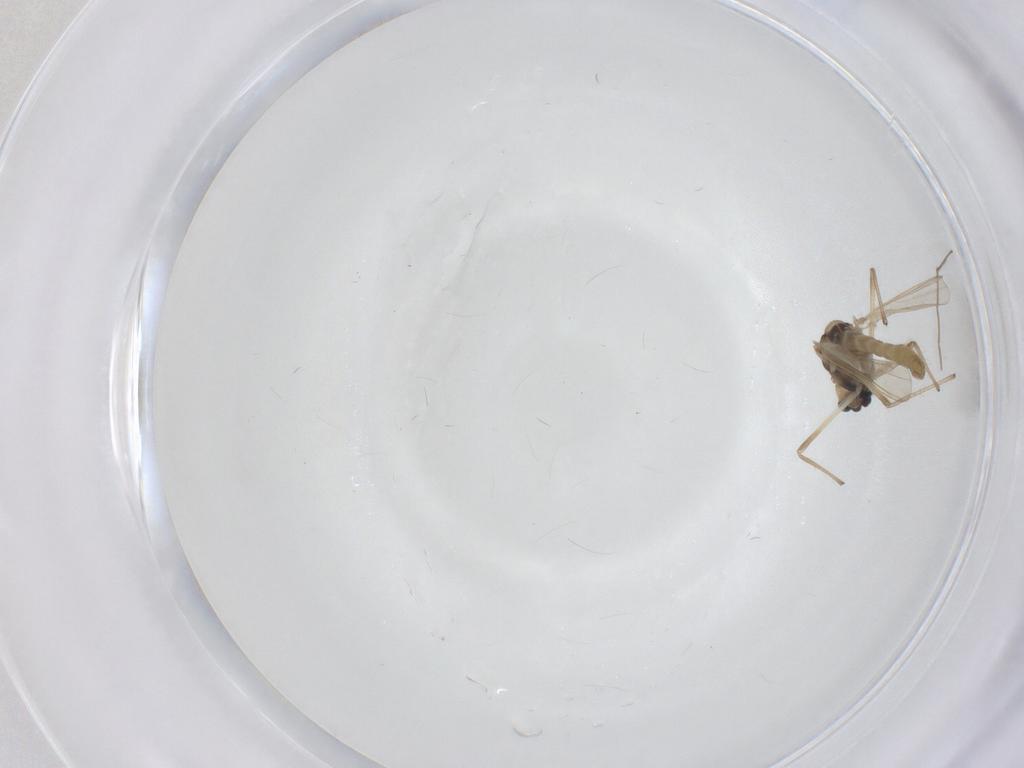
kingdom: Animalia
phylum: Arthropoda
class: Insecta
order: Diptera
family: Chironomidae
